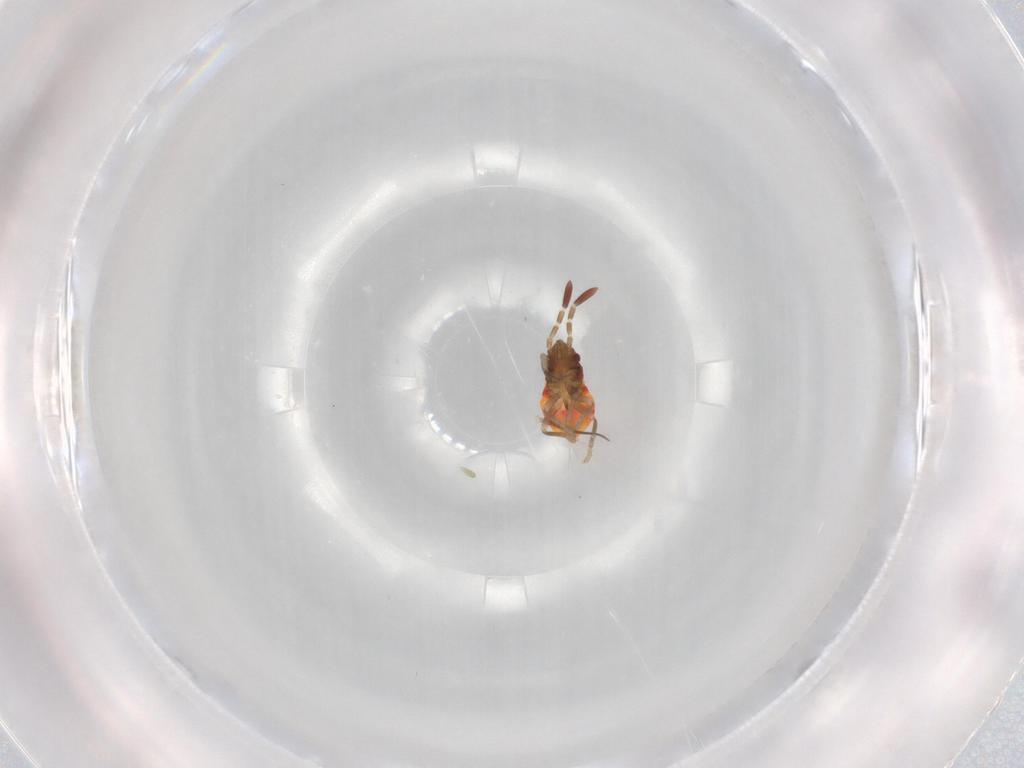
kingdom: Animalia
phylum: Arthropoda
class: Insecta
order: Hemiptera
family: Rhyparochromidae
